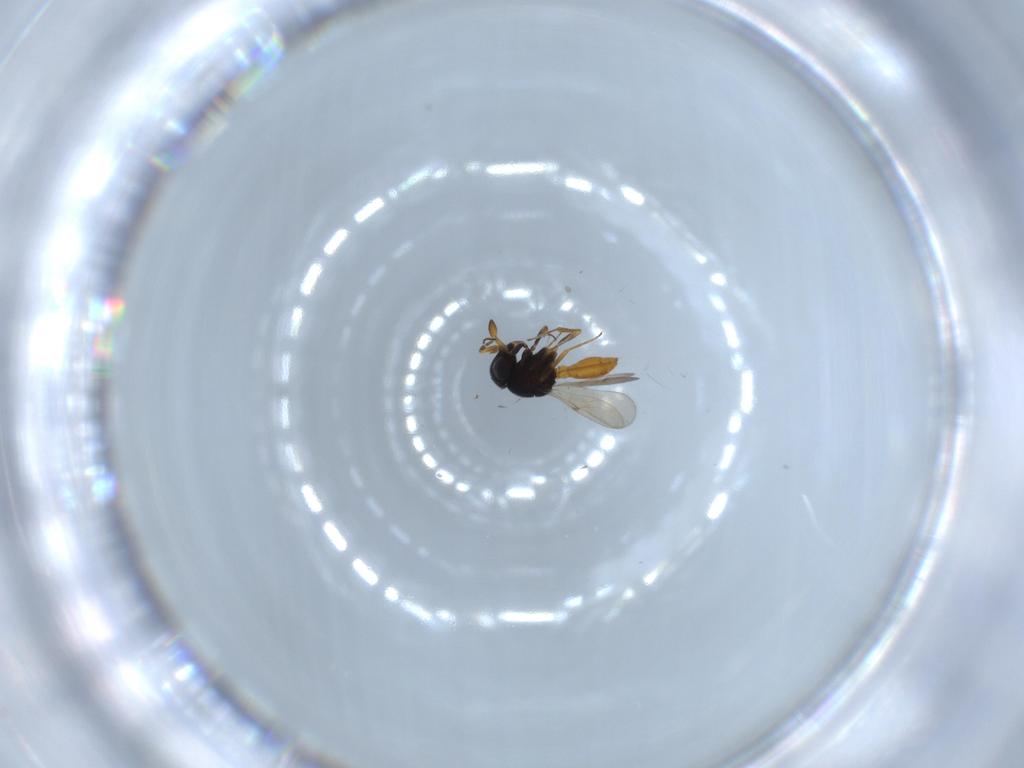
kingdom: Animalia
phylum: Arthropoda
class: Insecta
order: Hymenoptera
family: Scelionidae
